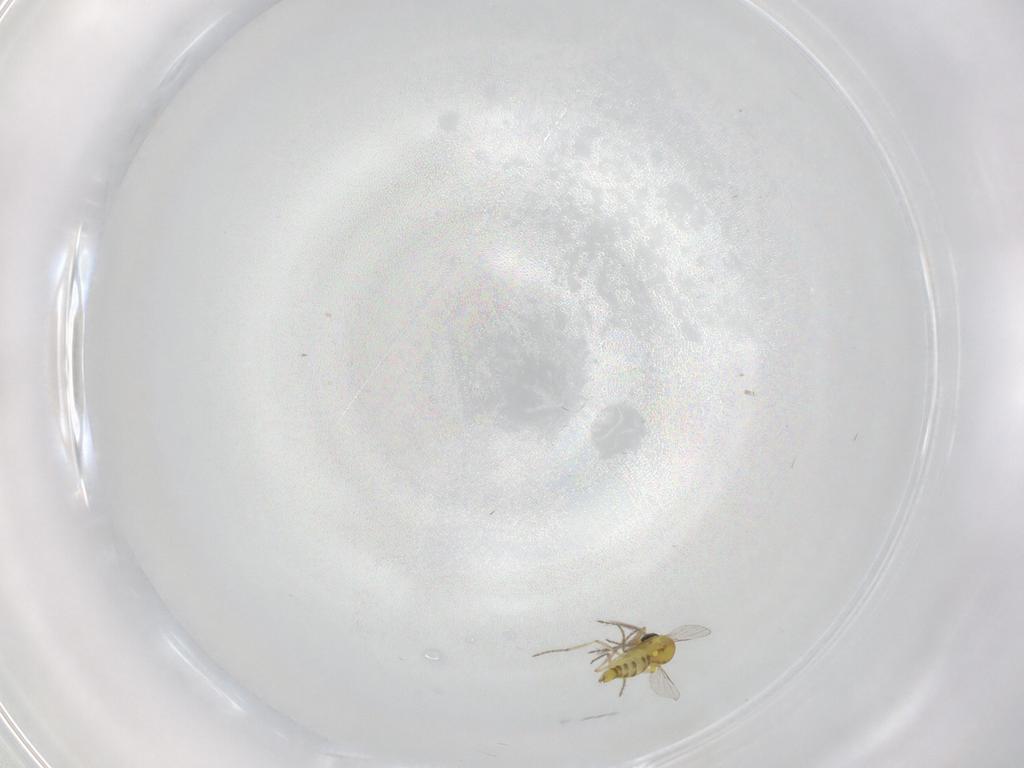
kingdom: Animalia
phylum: Arthropoda
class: Insecta
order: Diptera
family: Ceratopogonidae
